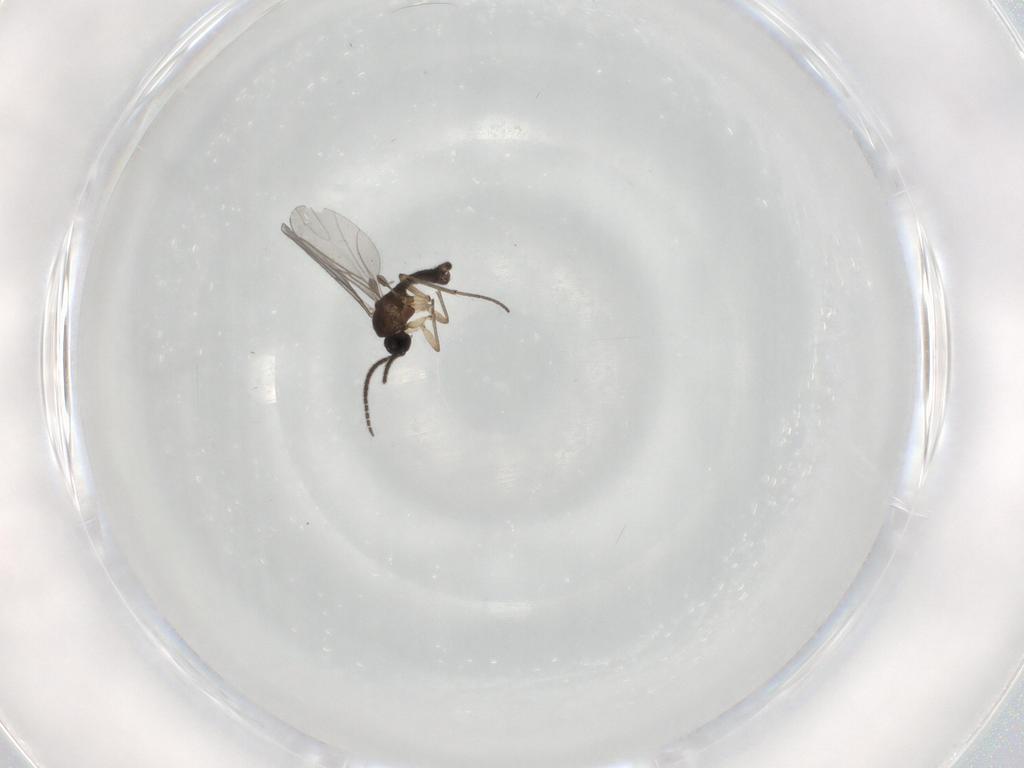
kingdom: Animalia
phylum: Arthropoda
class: Insecta
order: Diptera
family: Sciaridae
